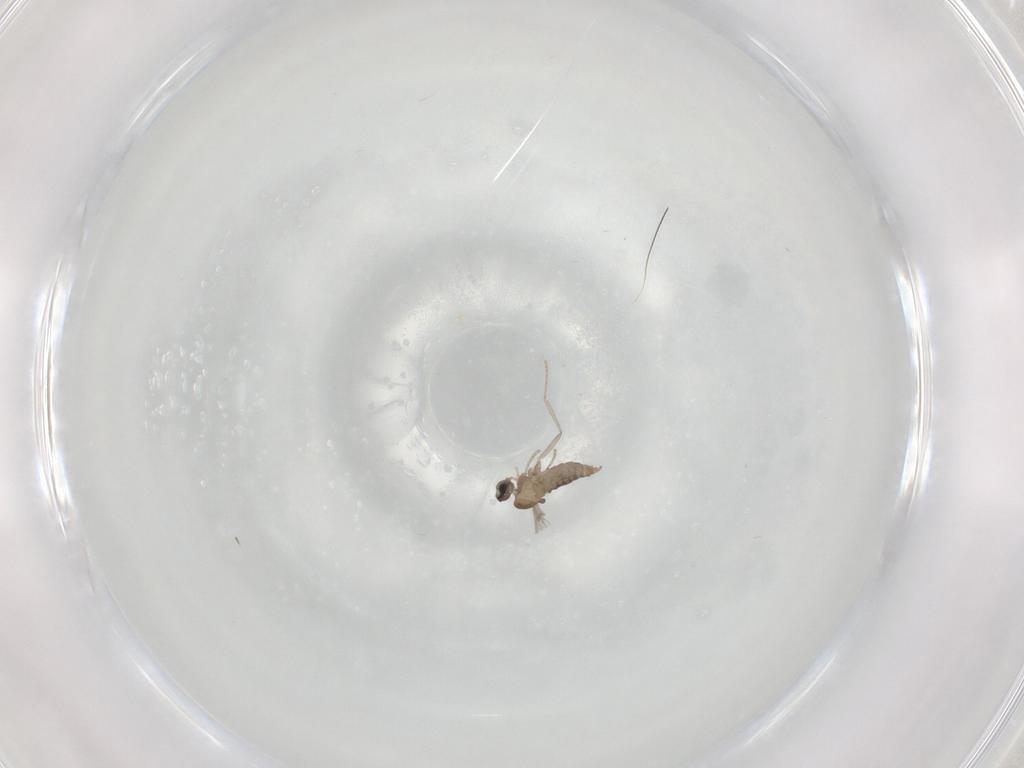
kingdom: Animalia
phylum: Arthropoda
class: Insecta
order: Diptera
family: Cecidomyiidae
